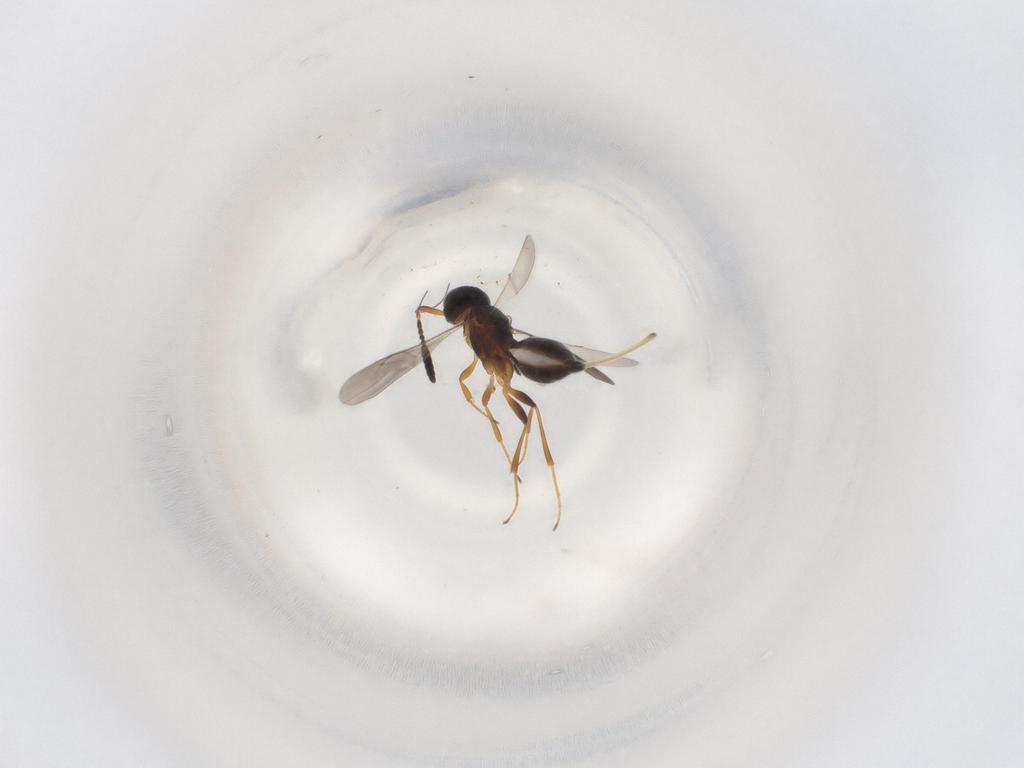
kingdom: Animalia
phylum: Arthropoda
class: Insecta
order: Hymenoptera
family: Scelionidae
